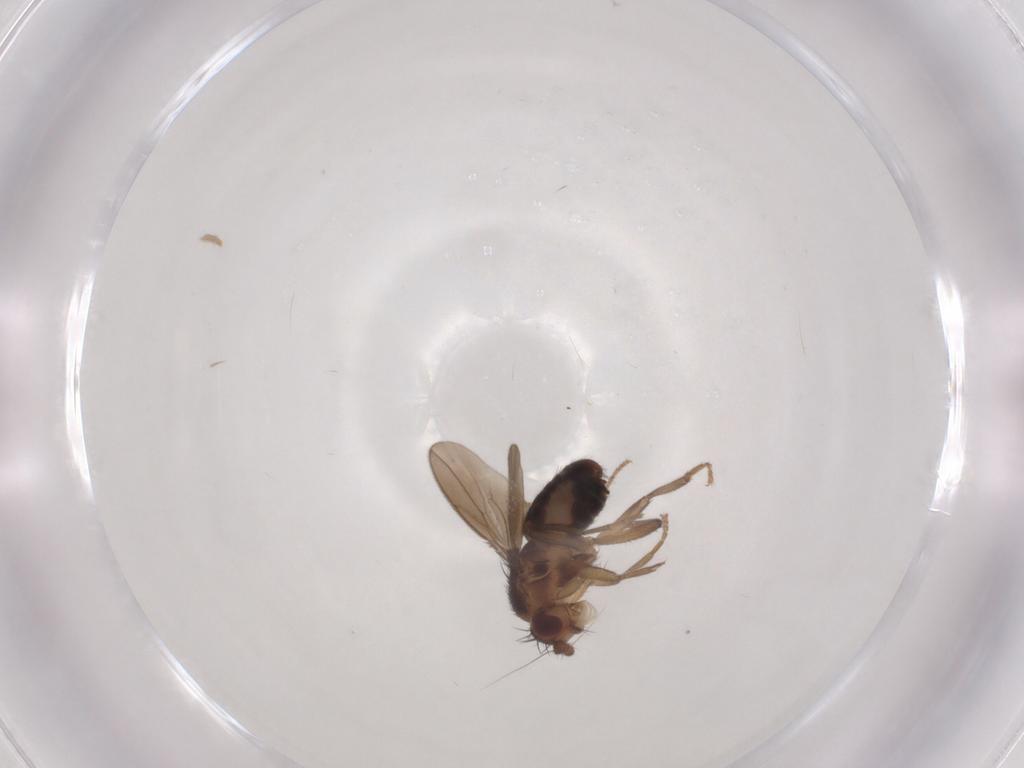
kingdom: Animalia
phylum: Arthropoda
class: Insecta
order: Diptera
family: Sphaeroceridae
